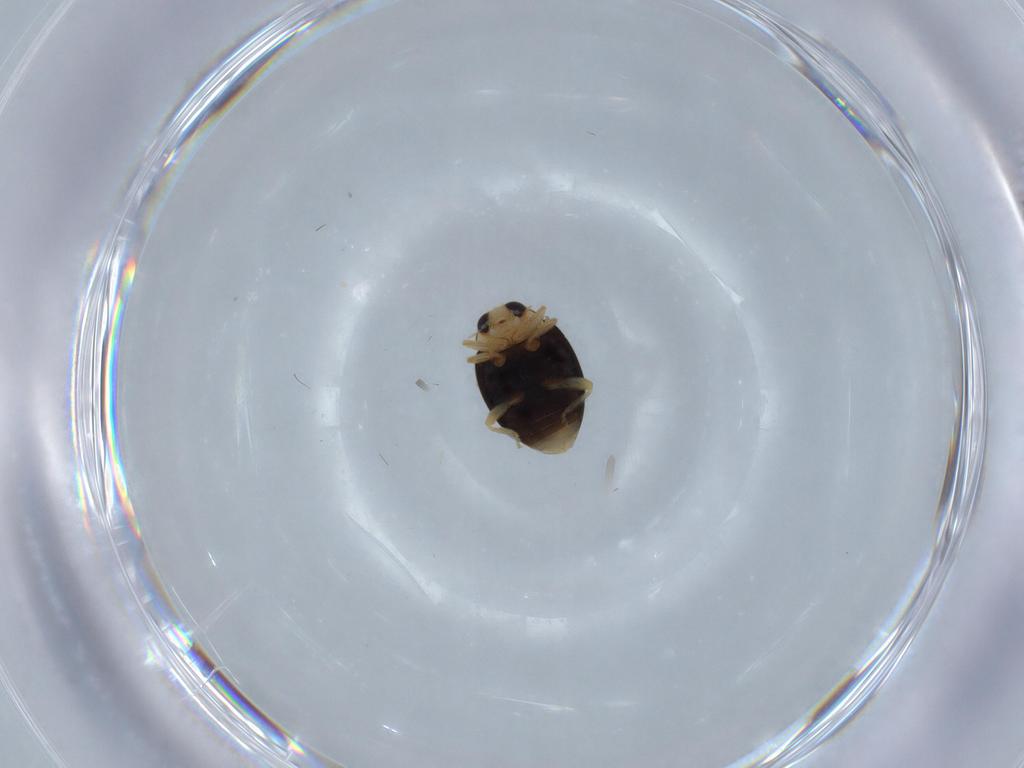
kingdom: Animalia
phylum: Arthropoda
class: Insecta
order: Coleoptera
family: Coccinellidae
